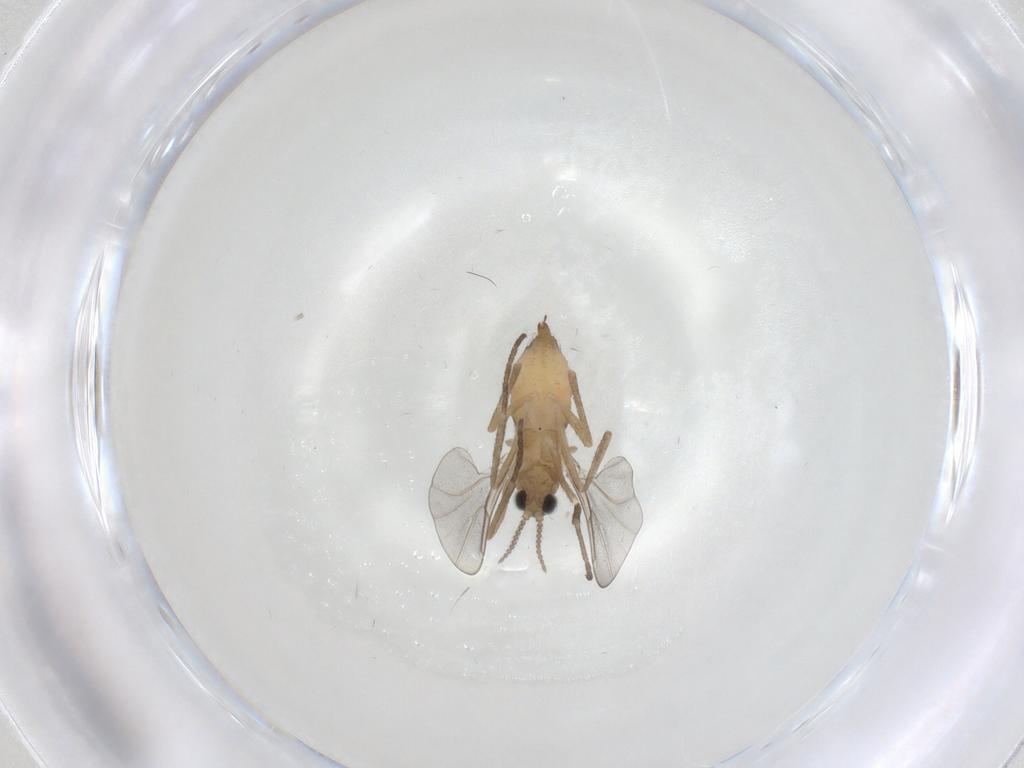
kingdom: Animalia
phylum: Arthropoda
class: Insecta
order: Diptera
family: Cecidomyiidae
